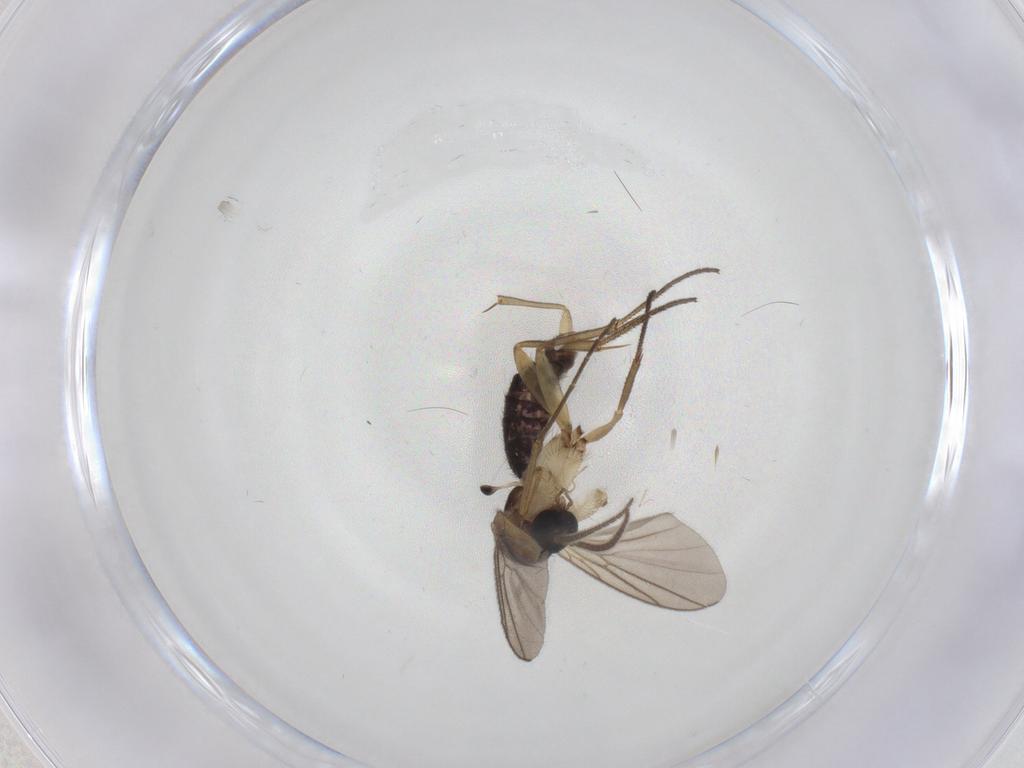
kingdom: Animalia
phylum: Arthropoda
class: Insecta
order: Diptera
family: Mycetophilidae
